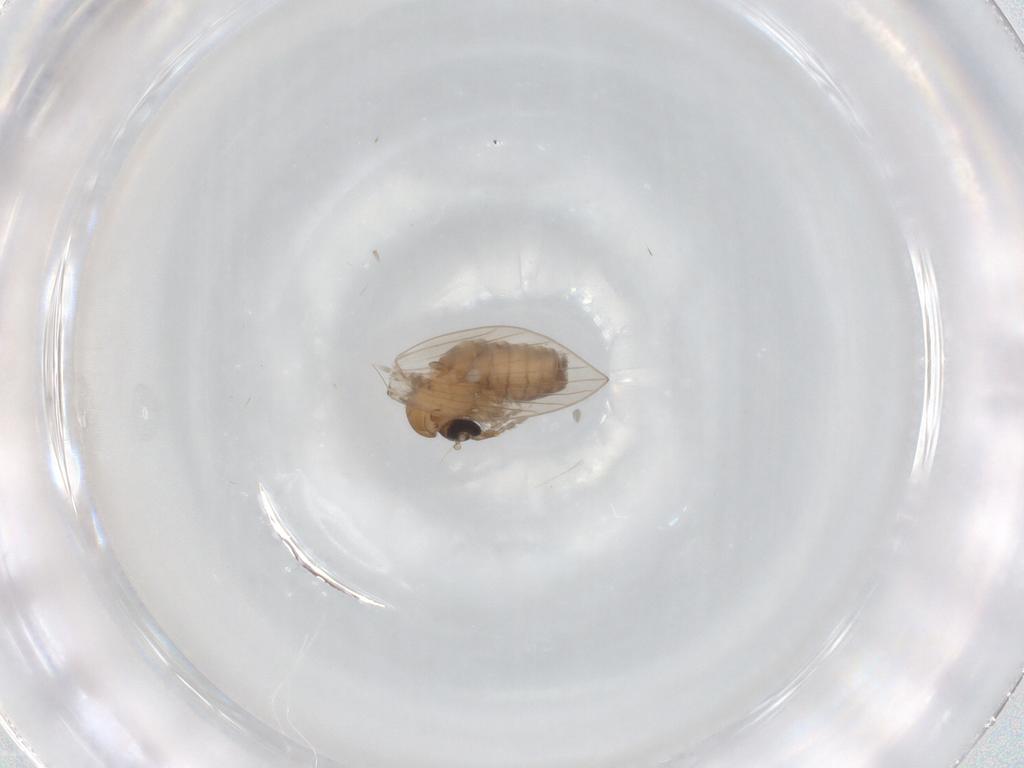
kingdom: Animalia
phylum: Arthropoda
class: Insecta
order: Diptera
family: Psychodidae
